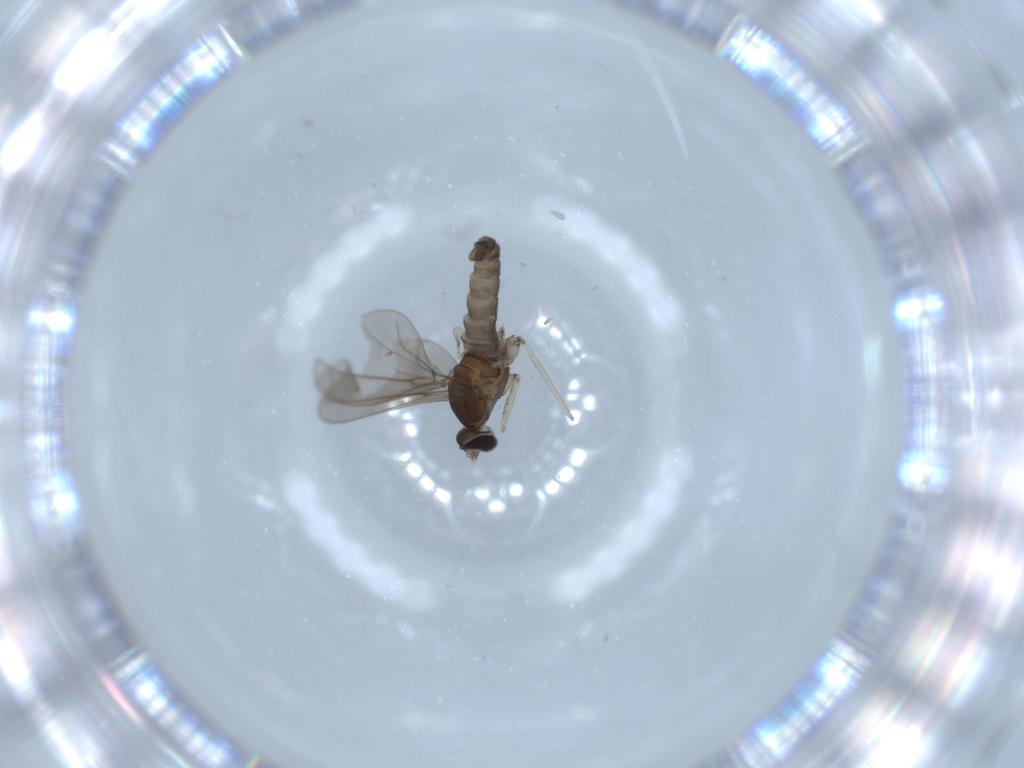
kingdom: Animalia
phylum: Arthropoda
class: Insecta
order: Diptera
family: Cecidomyiidae
